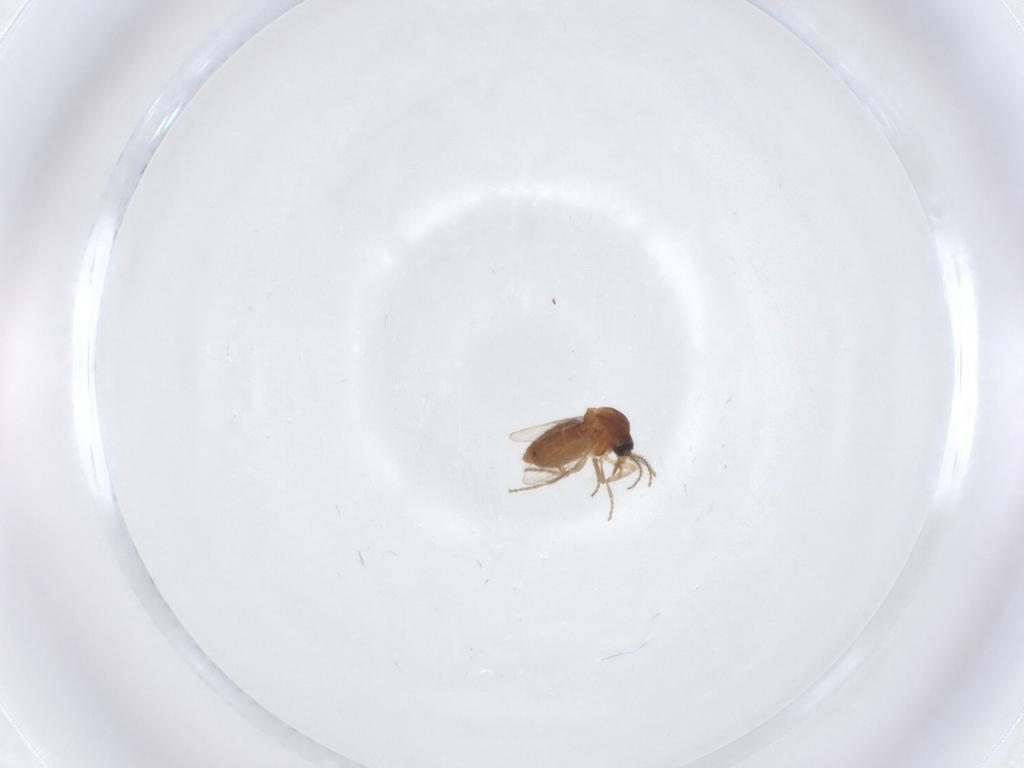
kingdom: Animalia
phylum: Arthropoda
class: Insecta
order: Diptera
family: Ceratopogonidae
